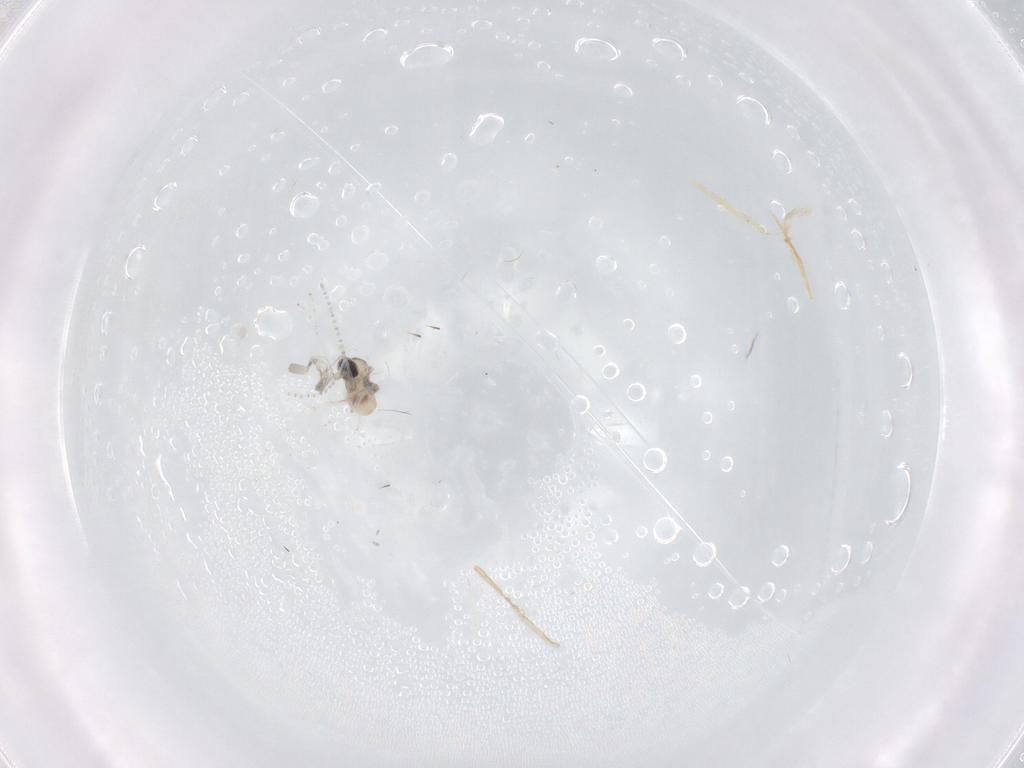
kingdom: Animalia
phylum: Arthropoda
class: Insecta
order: Diptera
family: Cecidomyiidae
